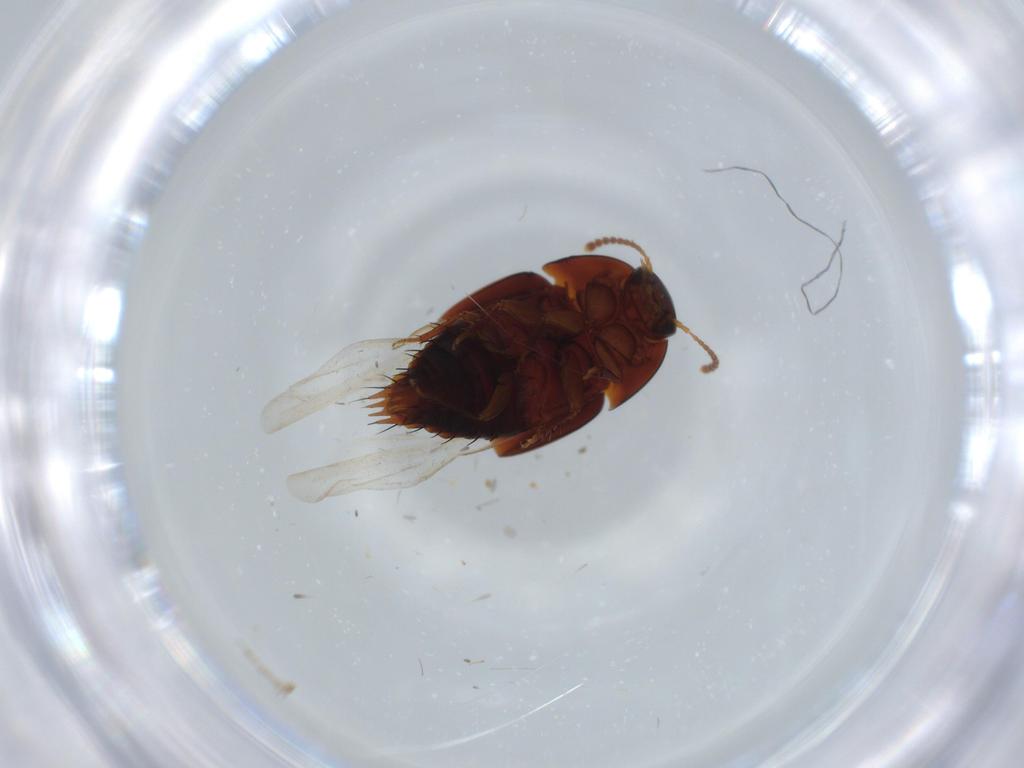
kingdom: Animalia
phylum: Arthropoda
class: Insecta
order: Coleoptera
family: Staphylinidae
